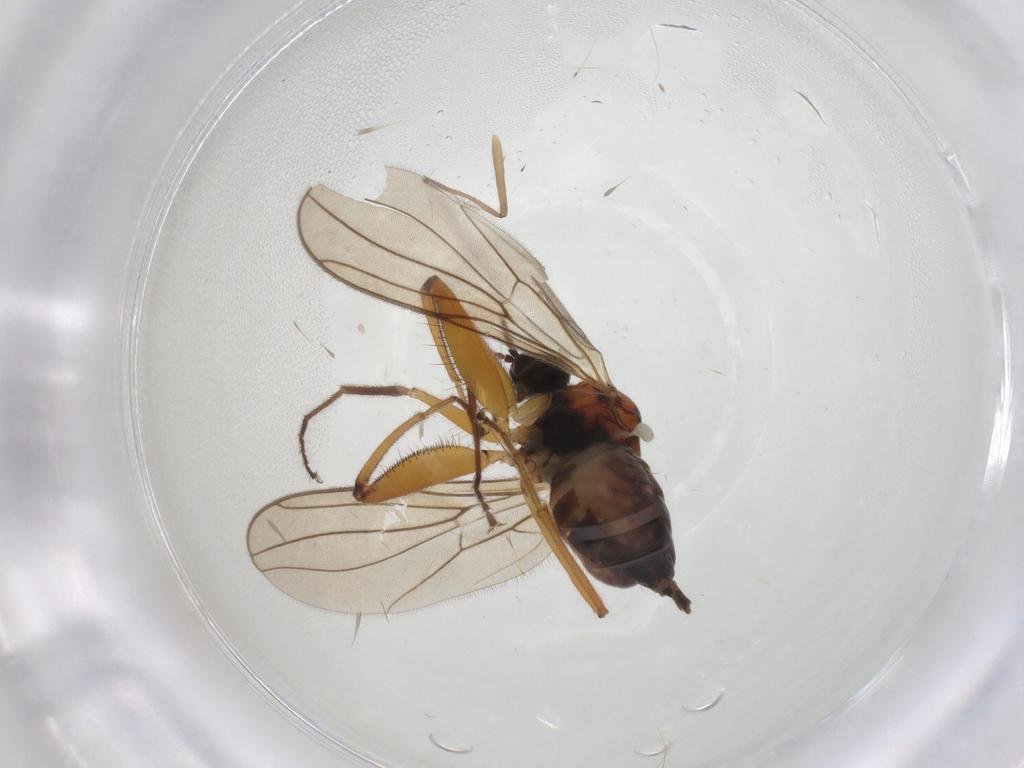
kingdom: Animalia
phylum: Arthropoda
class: Insecta
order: Diptera
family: Hybotidae
